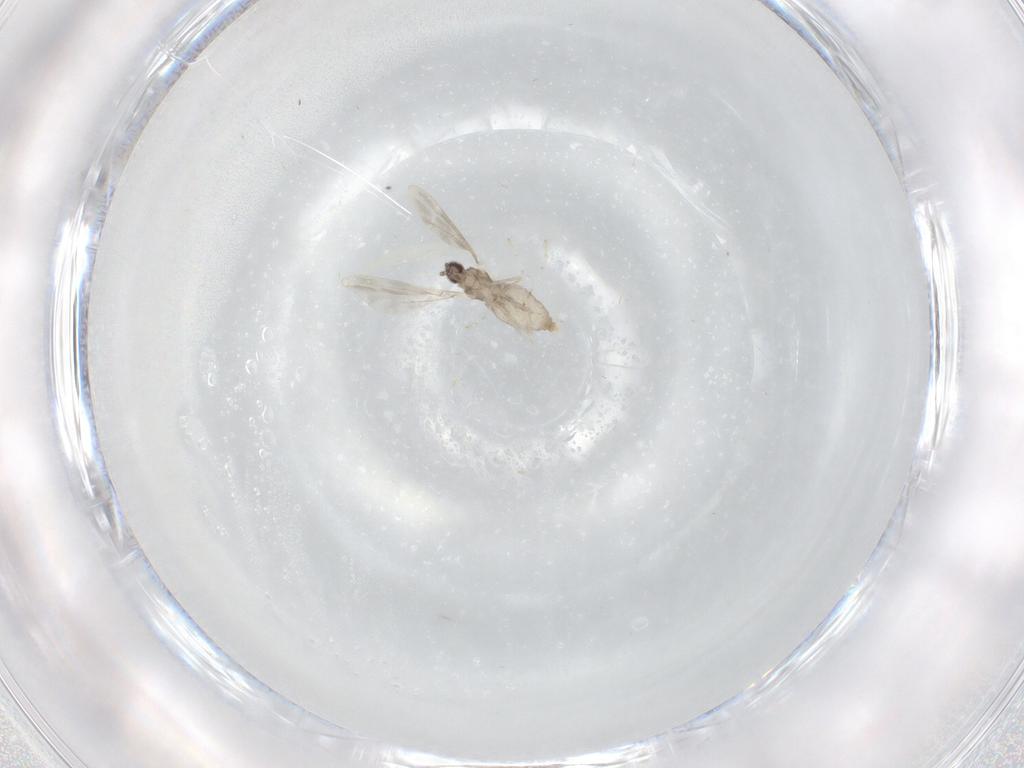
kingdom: Animalia
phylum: Arthropoda
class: Insecta
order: Diptera
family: Cecidomyiidae
